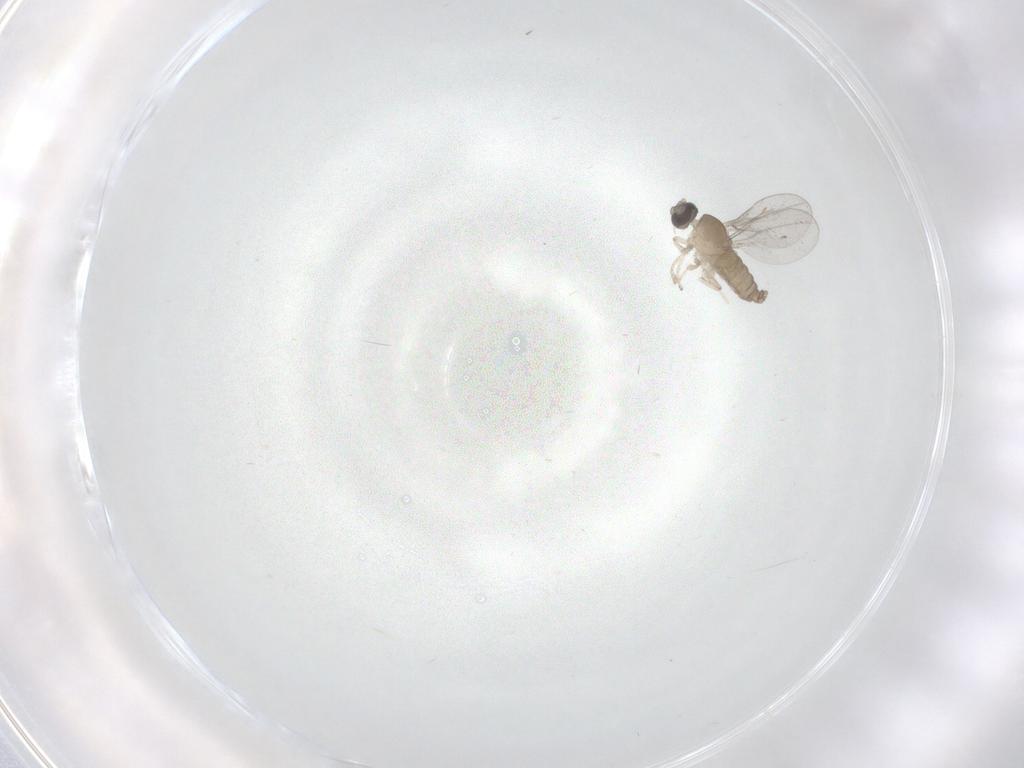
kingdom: Animalia
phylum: Arthropoda
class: Insecta
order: Diptera
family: Cecidomyiidae
